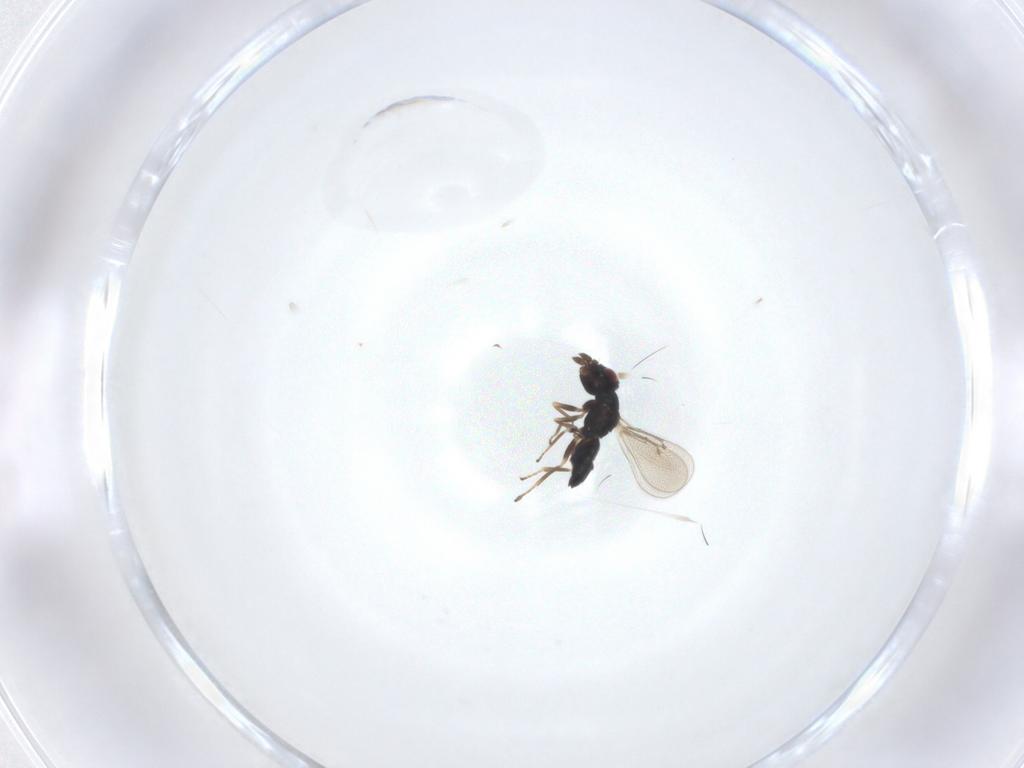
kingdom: Animalia
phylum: Arthropoda
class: Insecta
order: Hymenoptera
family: Eulophidae
